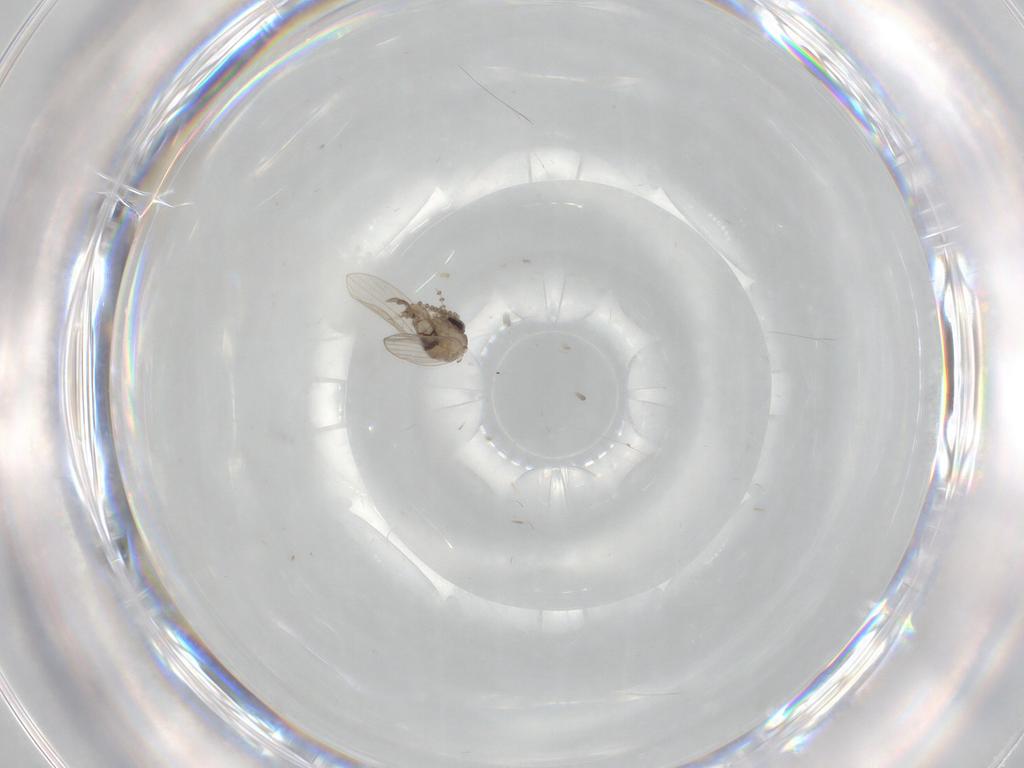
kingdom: Animalia
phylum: Arthropoda
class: Insecta
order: Diptera
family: Psychodidae
